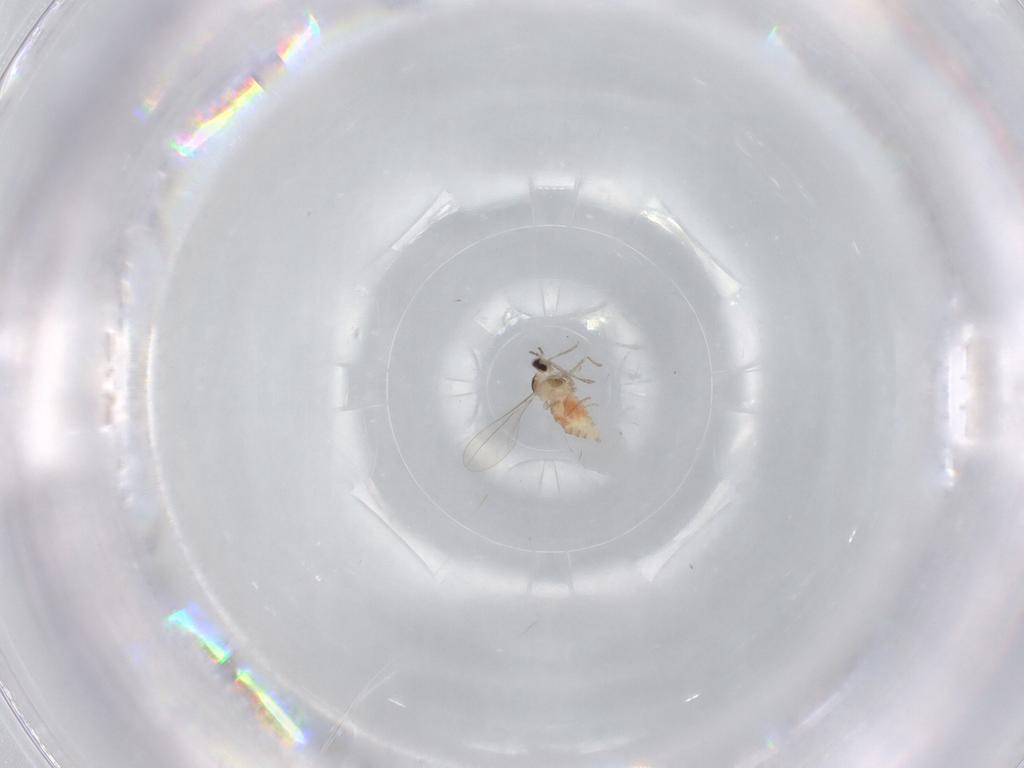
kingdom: Animalia
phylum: Arthropoda
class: Insecta
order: Diptera
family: Cecidomyiidae
